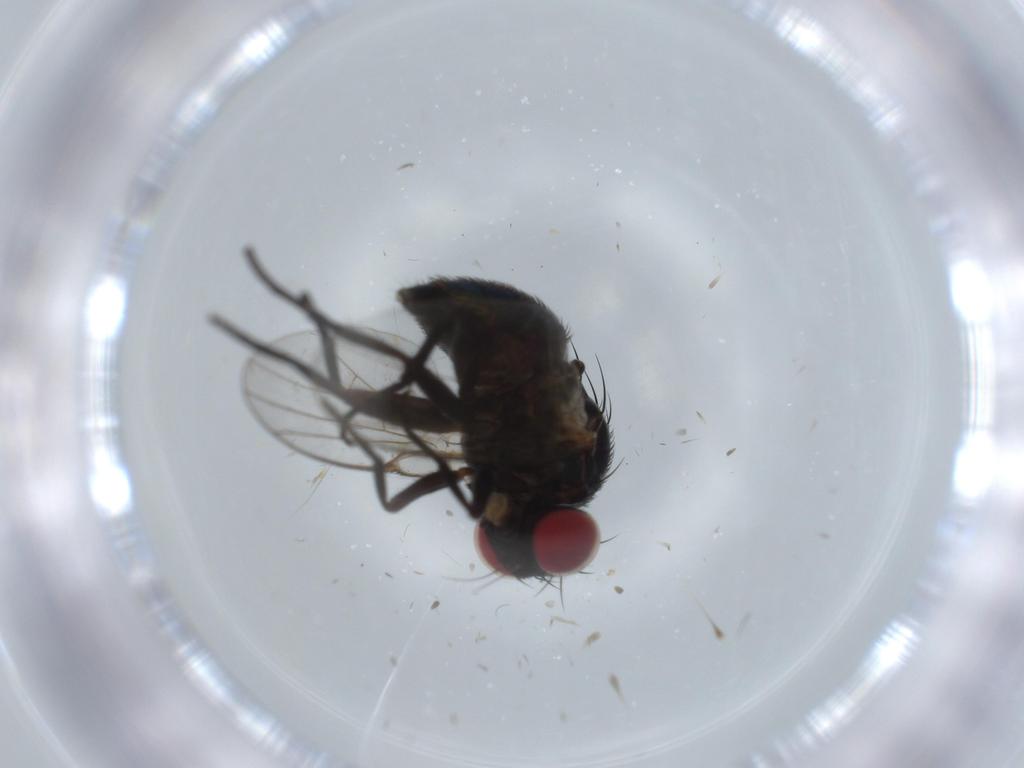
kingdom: Animalia
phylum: Arthropoda
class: Insecta
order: Diptera
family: Agromyzidae
